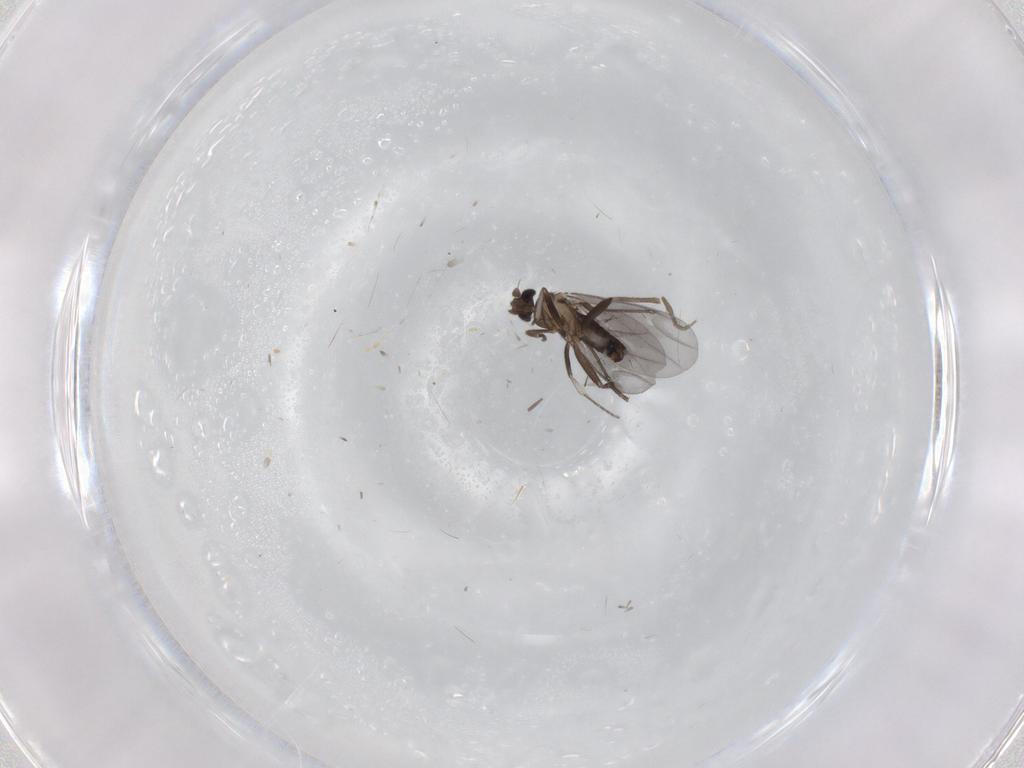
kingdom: Animalia
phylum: Arthropoda
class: Insecta
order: Diptera
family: Phoridae
